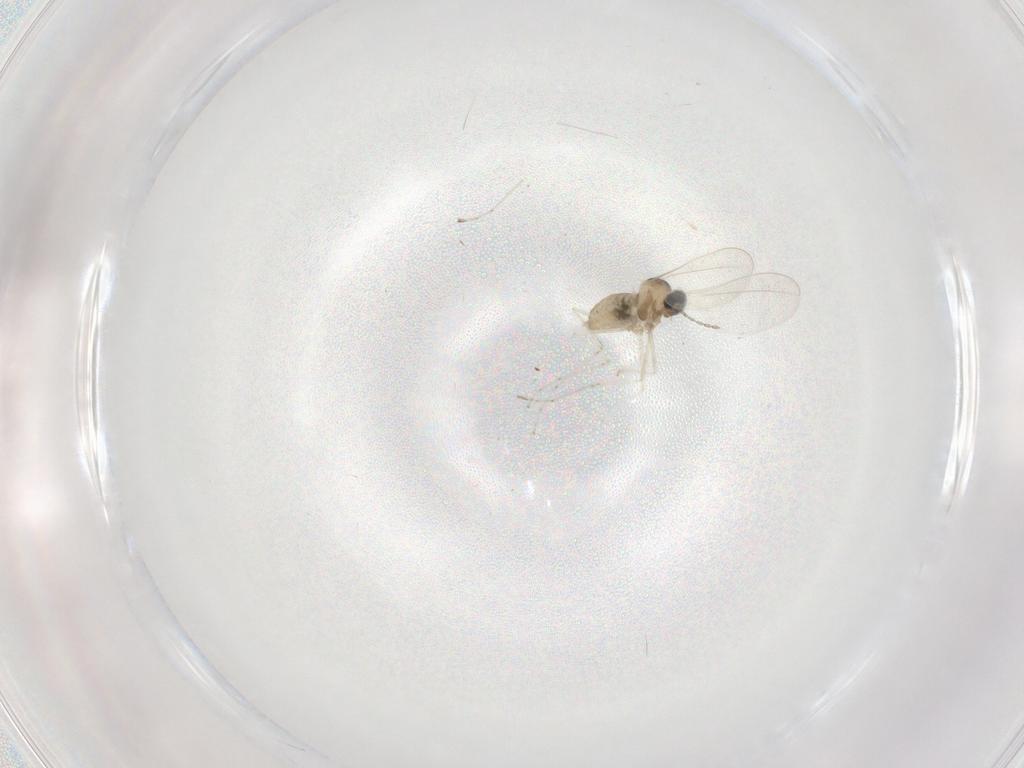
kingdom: Animalia
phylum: Arthropoda
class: Insecta
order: Diptera
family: Cecidomyiidae
